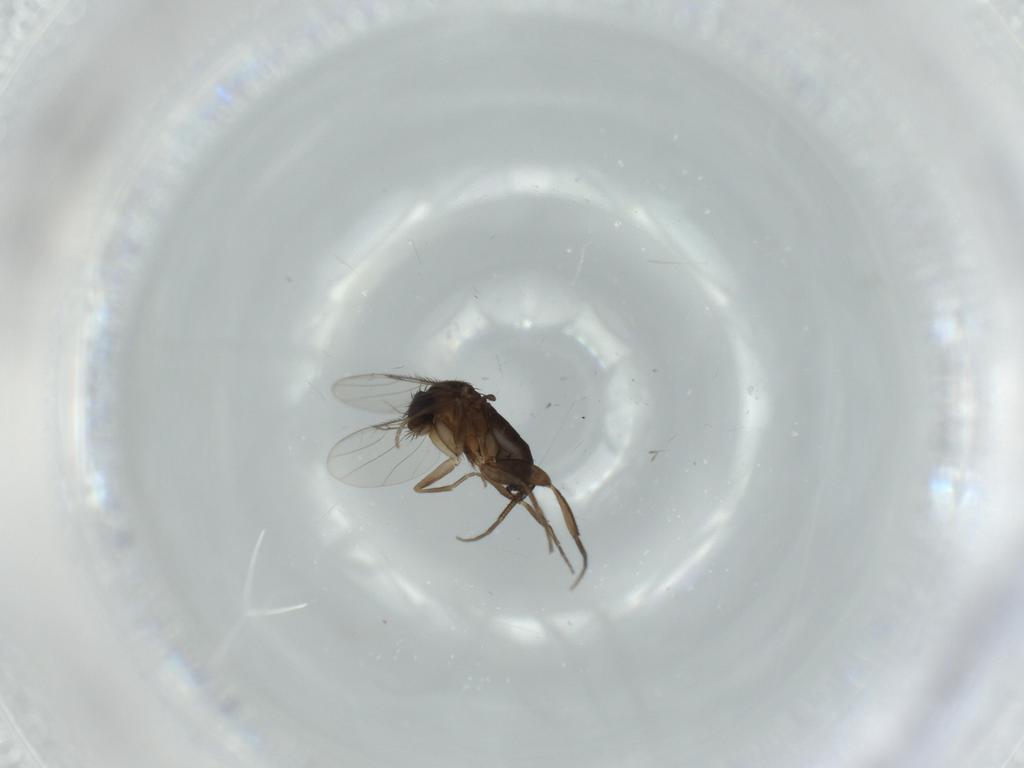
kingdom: Animalia
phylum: Arthropoda
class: Insecta
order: Diptera
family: Phoridae
